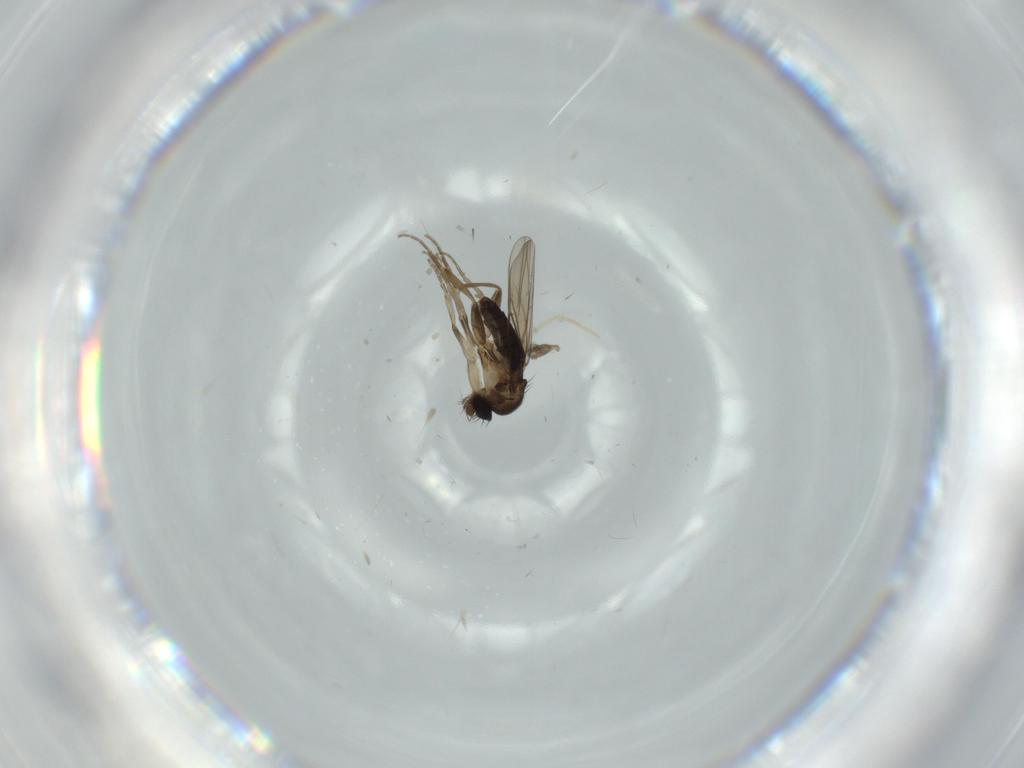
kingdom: Animalia
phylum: Arthropoda
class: Insecta
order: Diptera
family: Phoridae
